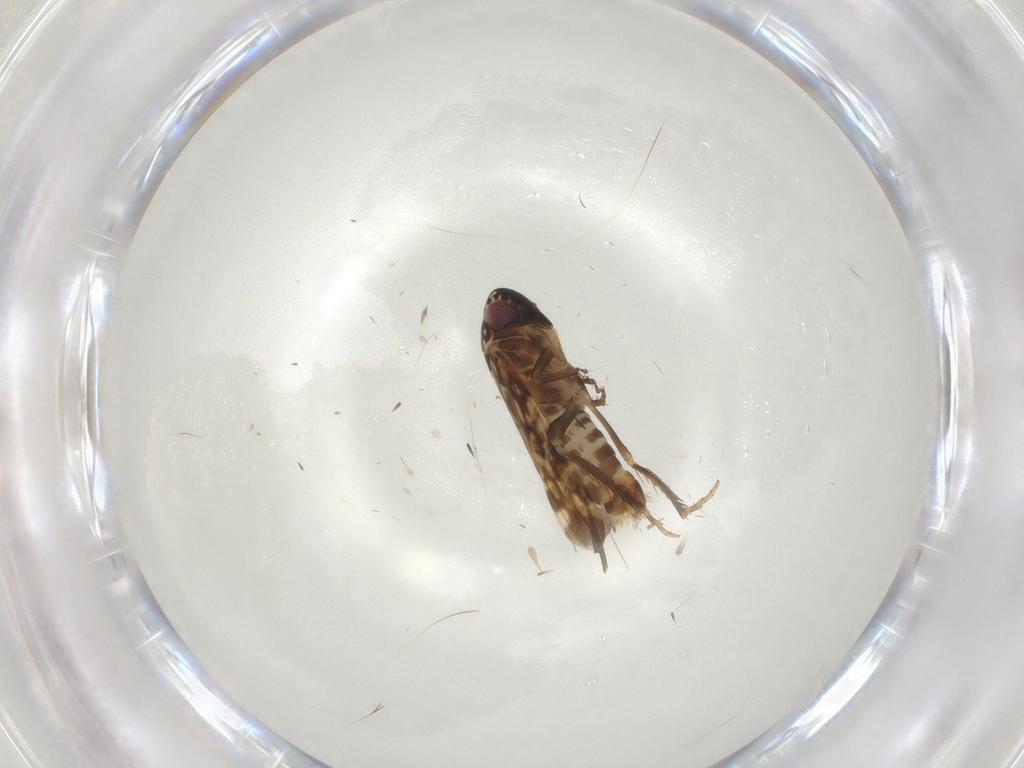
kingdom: Animalia
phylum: Arthropoda
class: Insecta
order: Hemiptera
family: Cicadellidae
